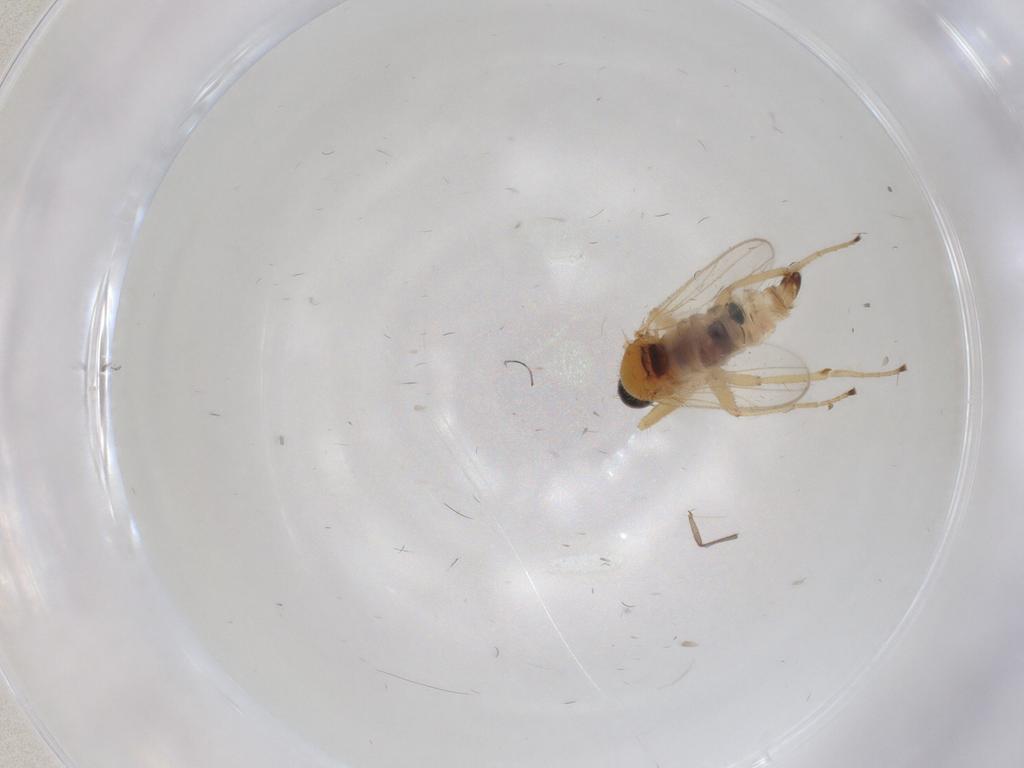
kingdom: Animalia
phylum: Arthropoda
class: Insecta
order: Diptera
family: Hybotidae
